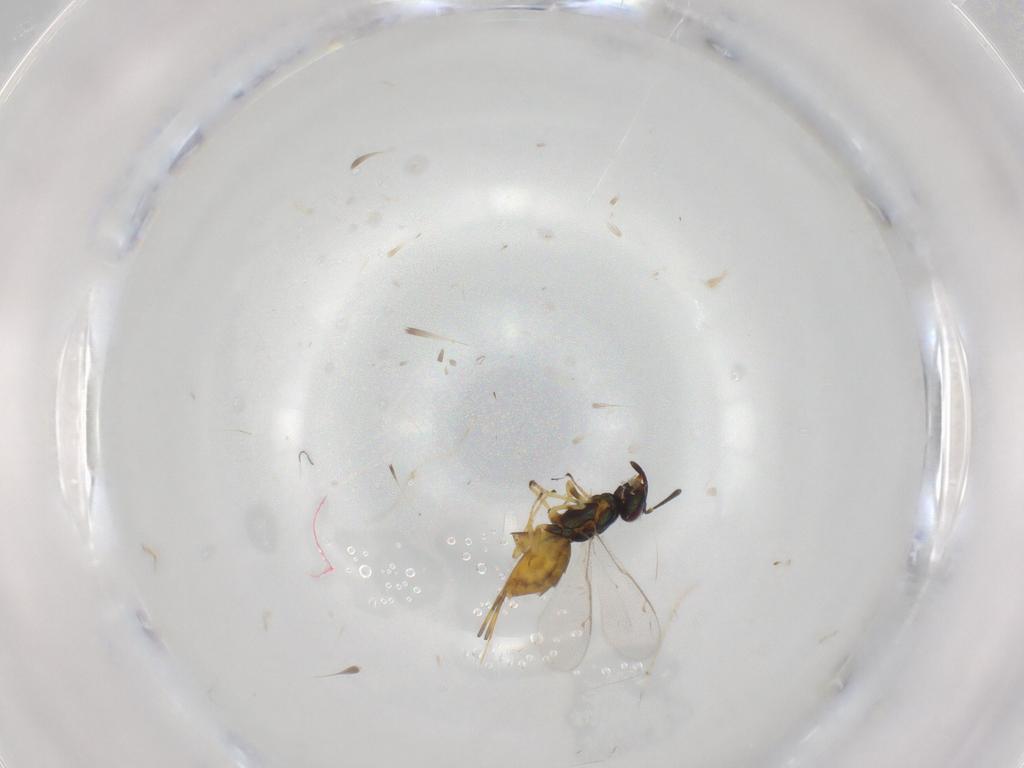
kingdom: Animalia
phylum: Arthropoda
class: Insecta
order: Hymenoptera
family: Eupelmidae
